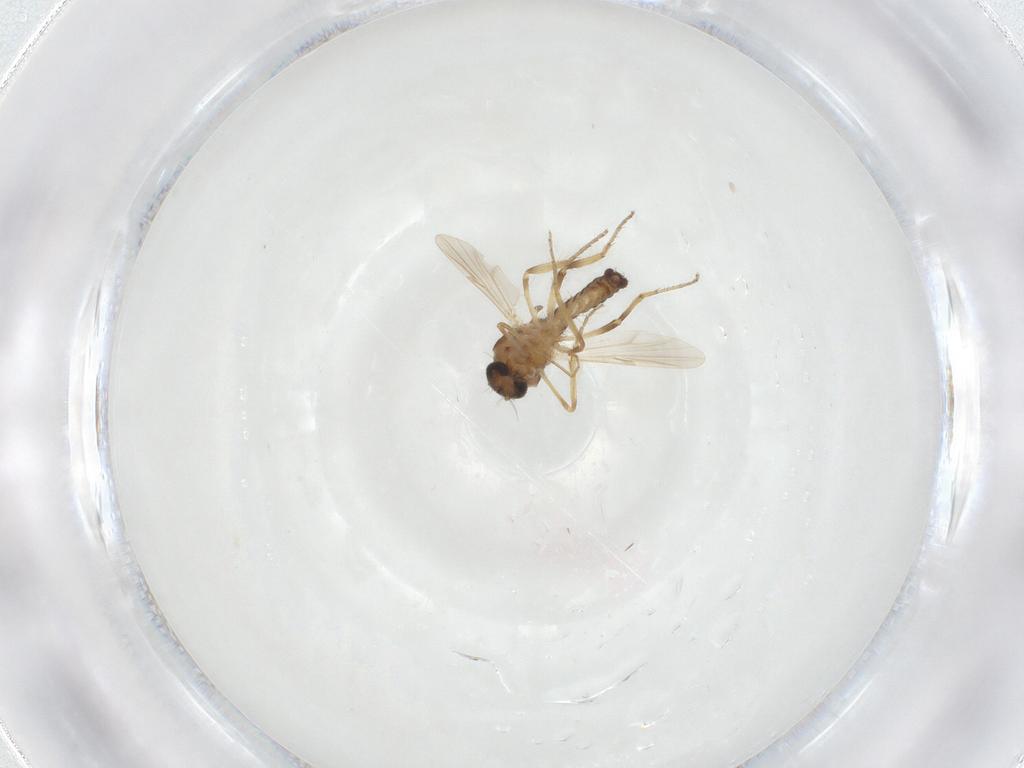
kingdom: Animalia
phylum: Arthropoda
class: Insecta
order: Diptera
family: Ceratopogonidae
